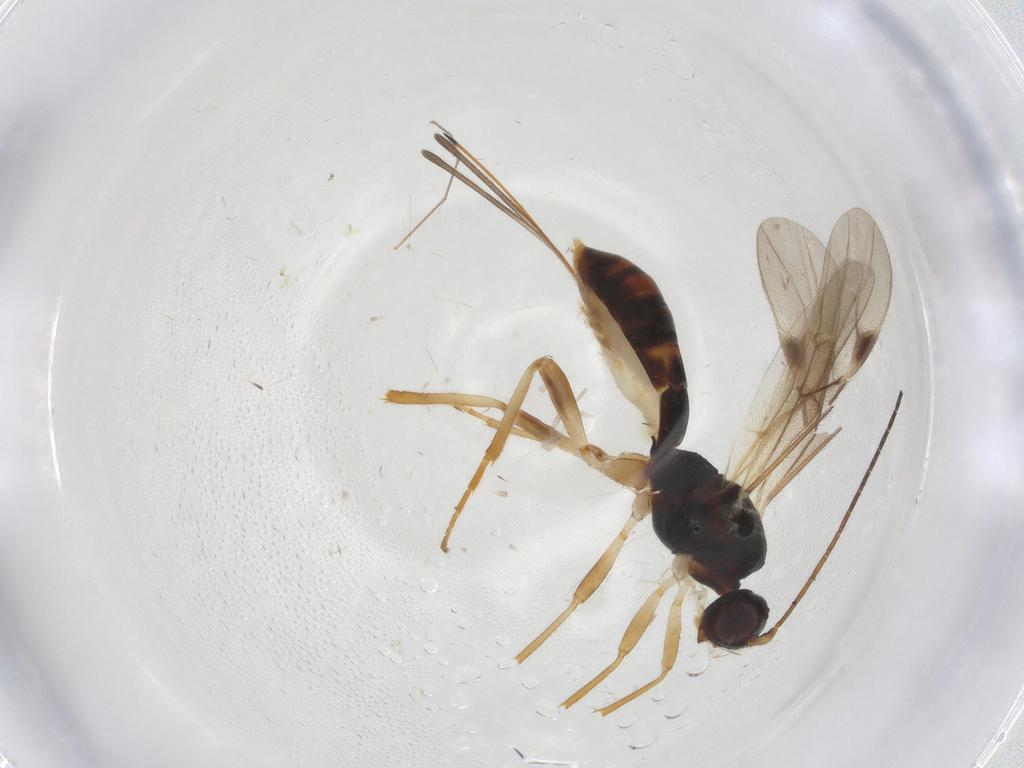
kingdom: Animalia
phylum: Arthropoda
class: Insecta
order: Hymenoptera
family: Braconidae
